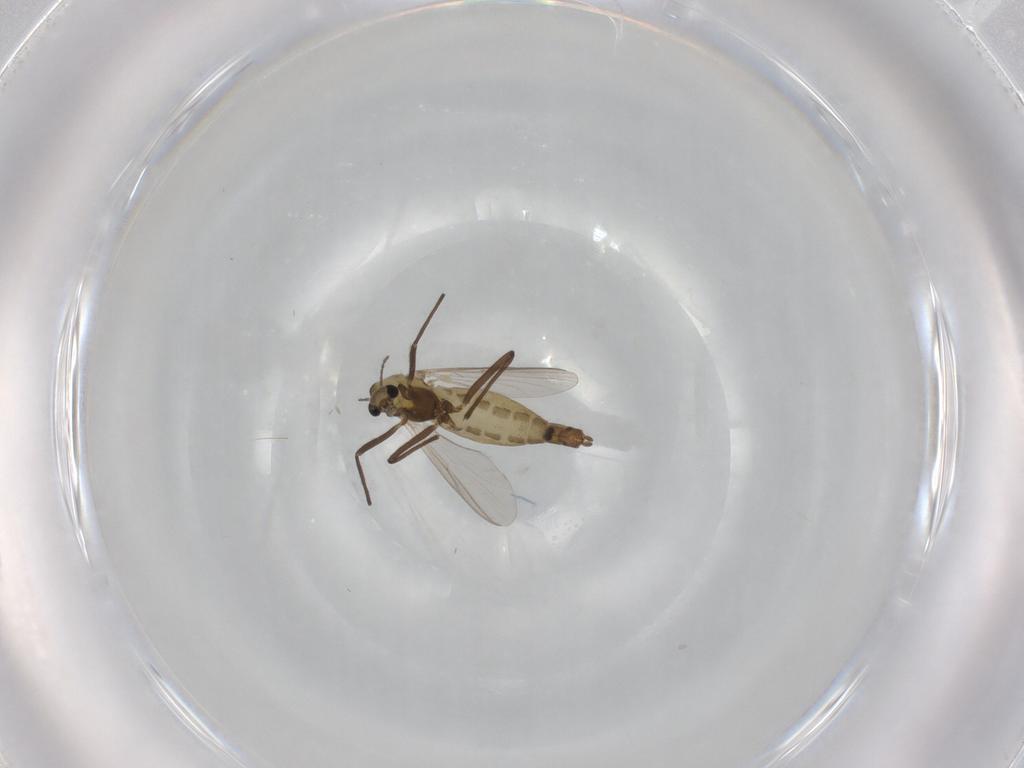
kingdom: Animalia
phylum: Arthropoda
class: Insecta
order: Diptera
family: Chironomidae
